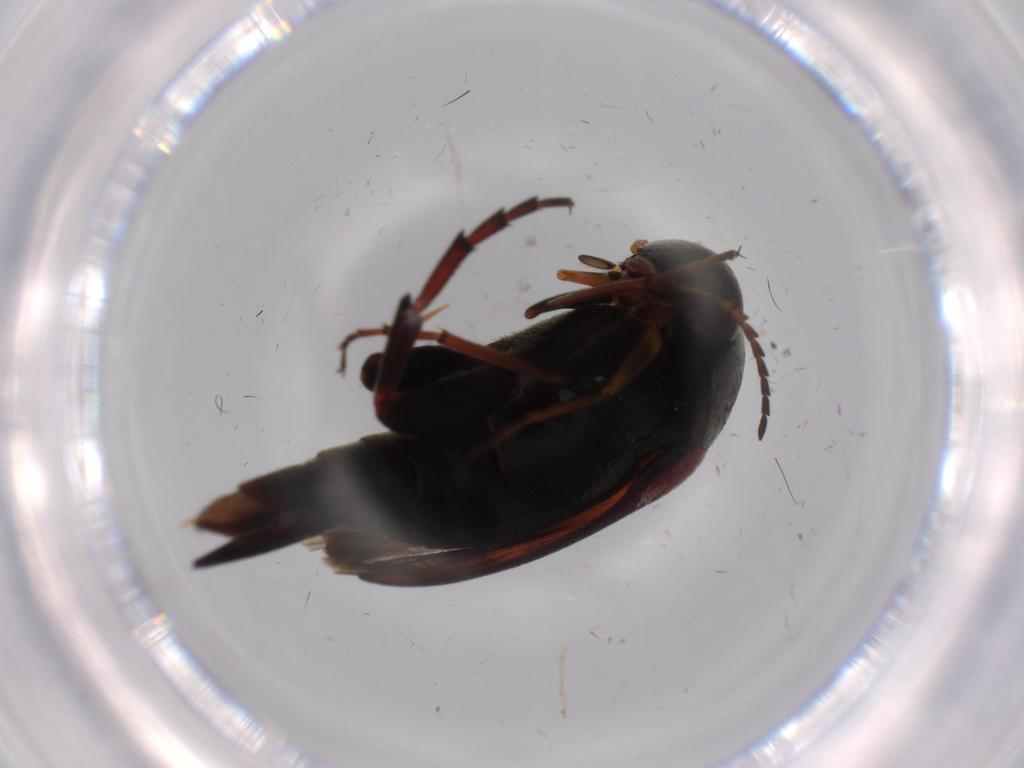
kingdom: Animalia
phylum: Arthropoda
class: Insecta
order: Coleoptera
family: Mordellidae
